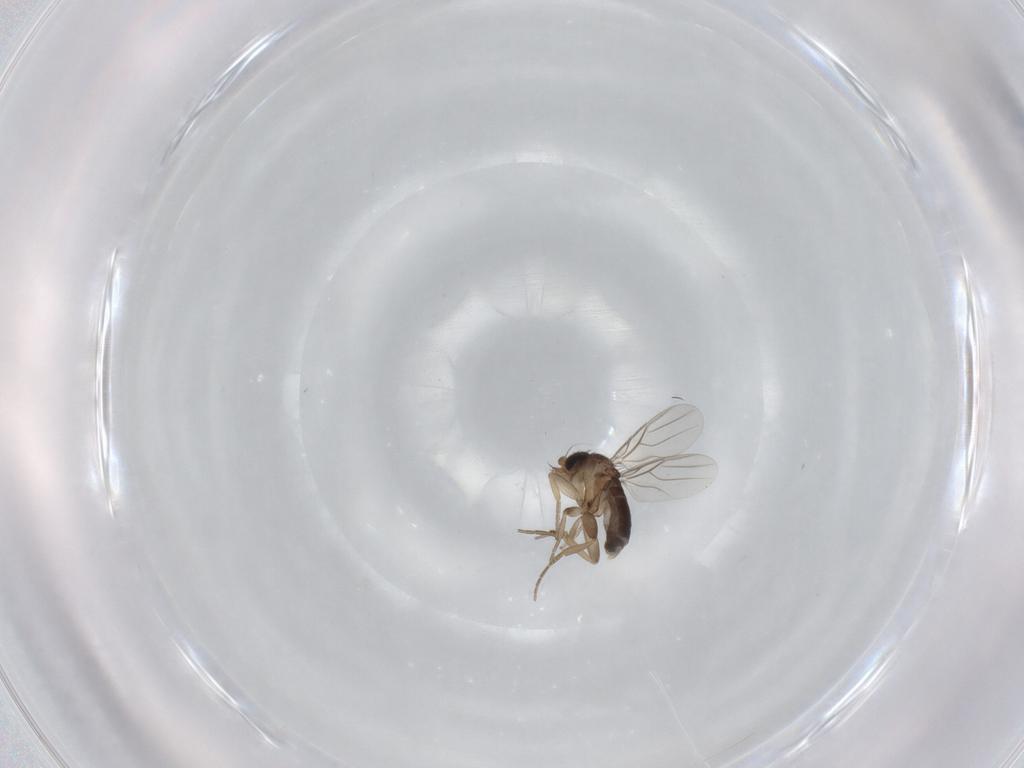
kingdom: Animalia
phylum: Arthropoda
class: Insecta
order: Diptera
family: Phoridae
